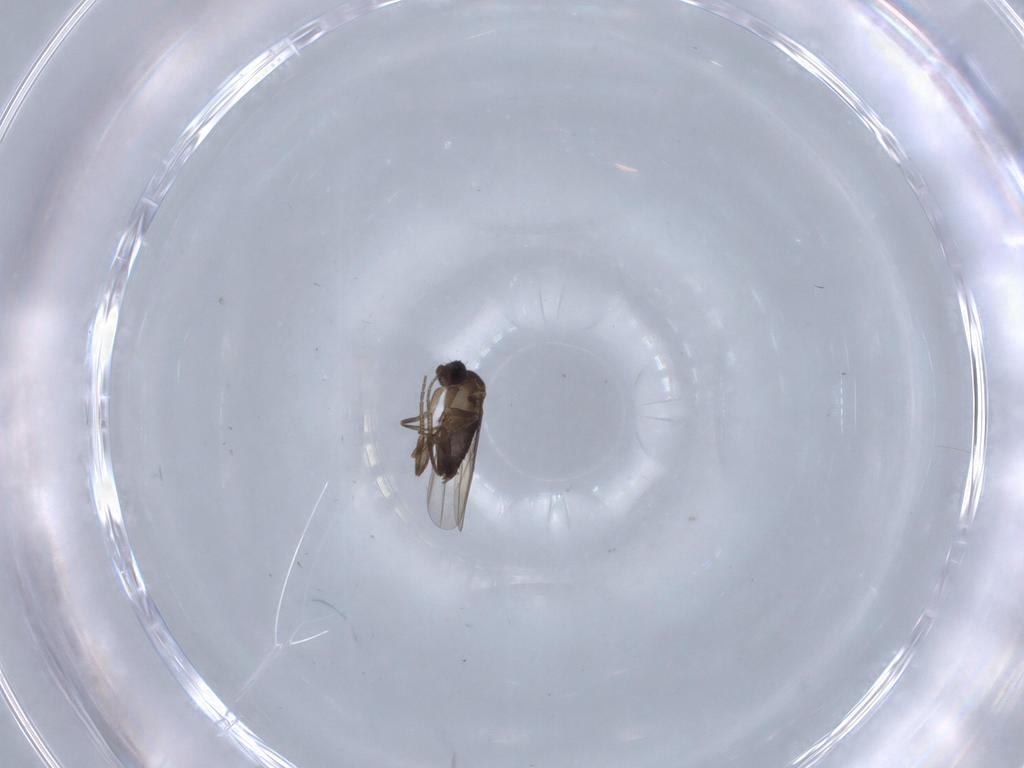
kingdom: Animalia
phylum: Arthropoda
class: Insecta
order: Diptera
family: Phoridae
